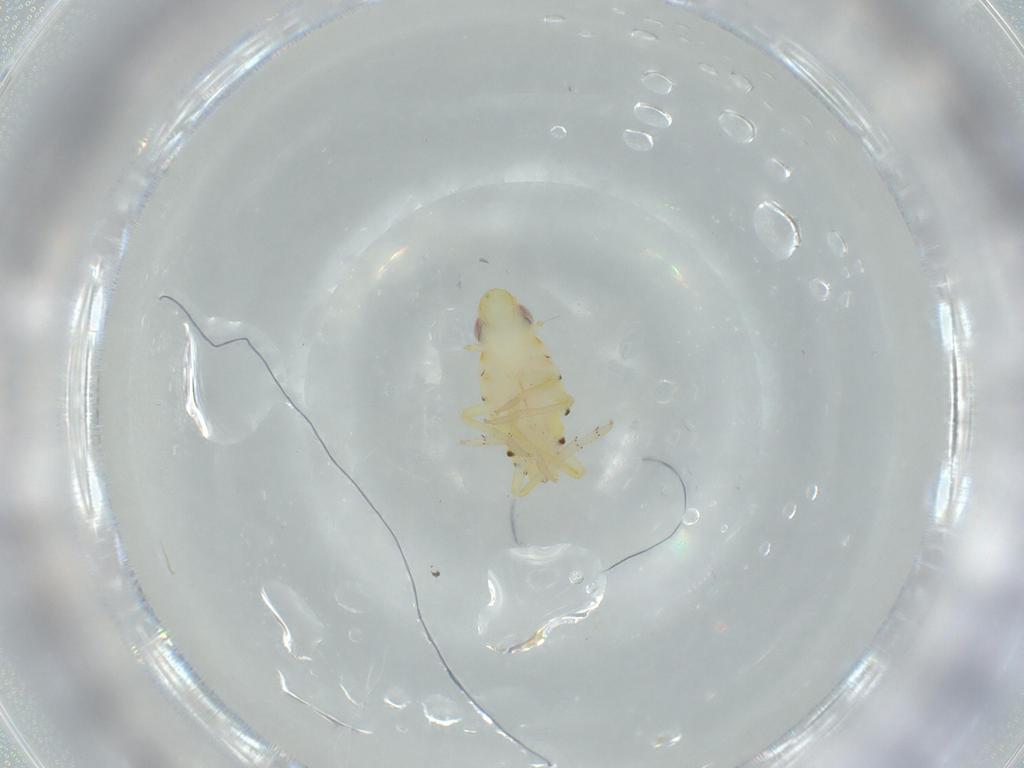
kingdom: Animalia
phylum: Arthropoda
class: Insecta
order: Hemiptera
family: Tropiduchidae
